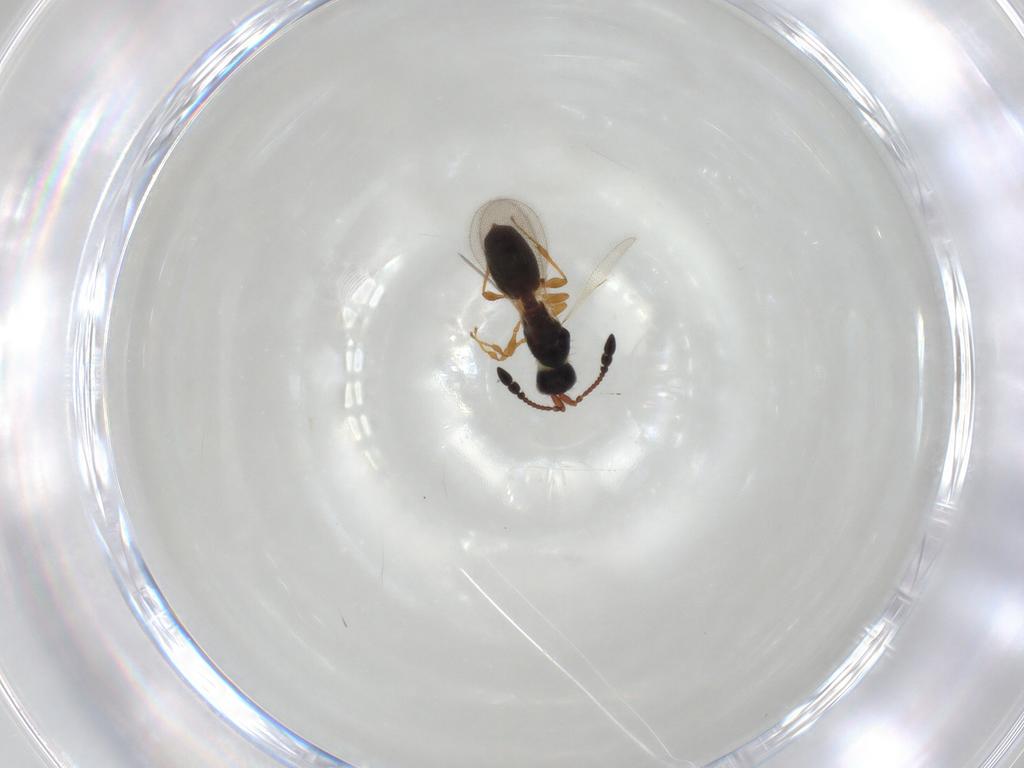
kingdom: Animalia
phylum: Arthropoda
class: Insecta
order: Hymenoptera
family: Diapriidae
